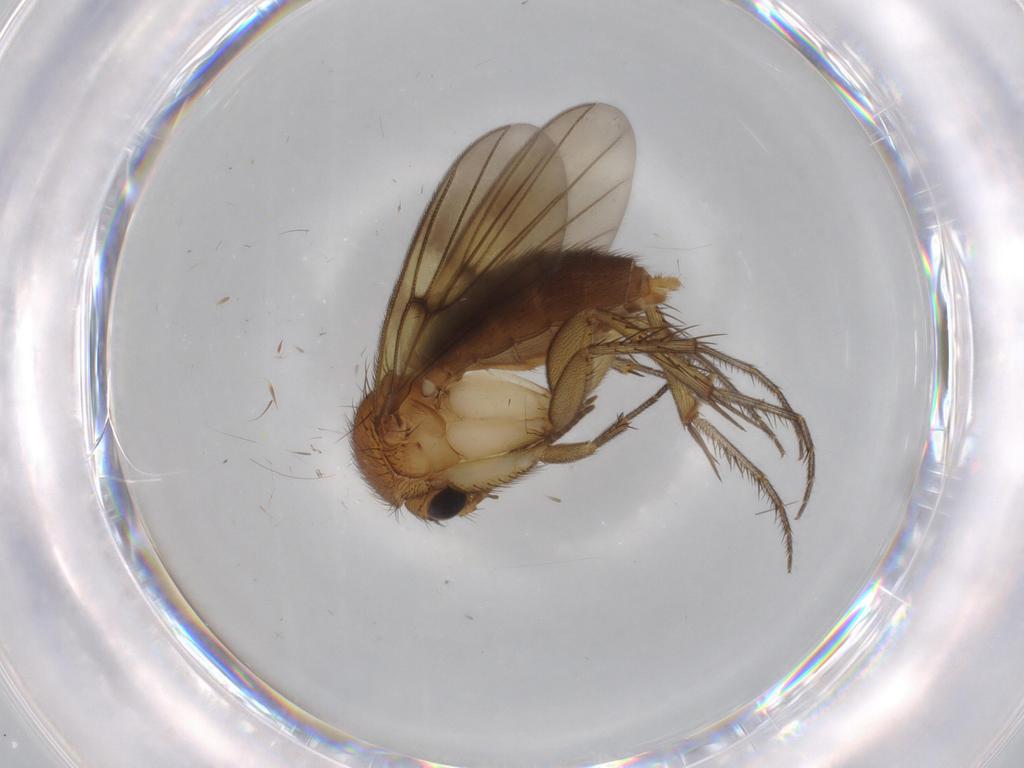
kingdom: Animalia
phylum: Arthropoda
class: Insecta
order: Diptera
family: Cecidomyiidae
